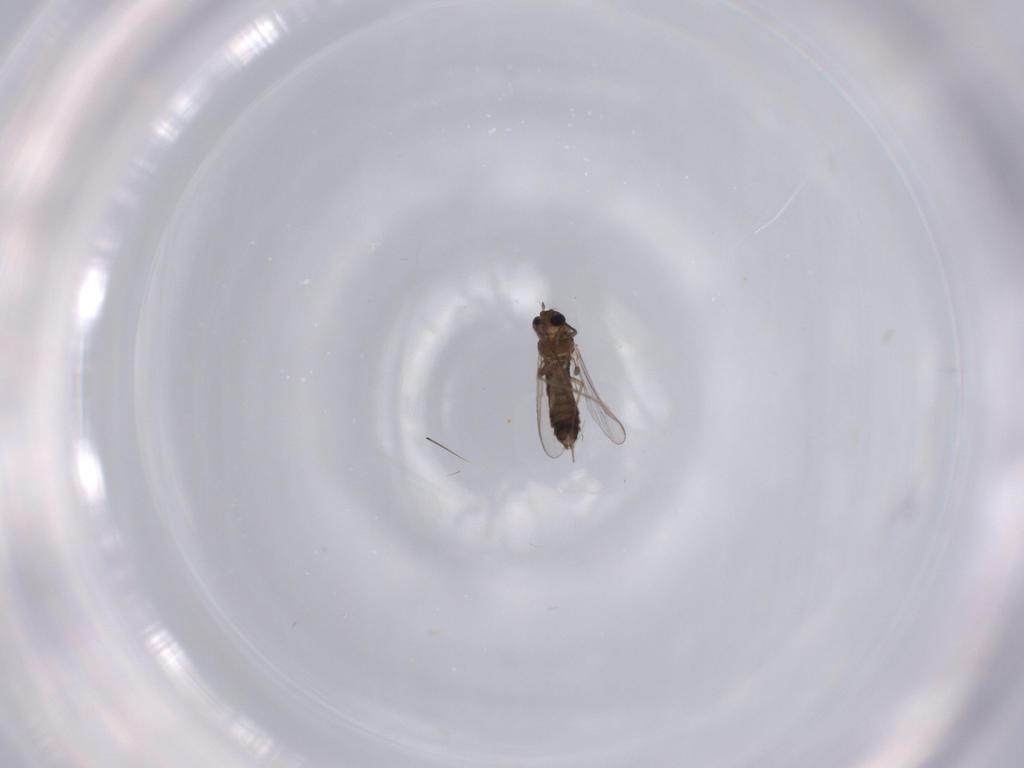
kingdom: Animalia
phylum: Arthropoda
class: Insecta
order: Diptera
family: Chironomidae
